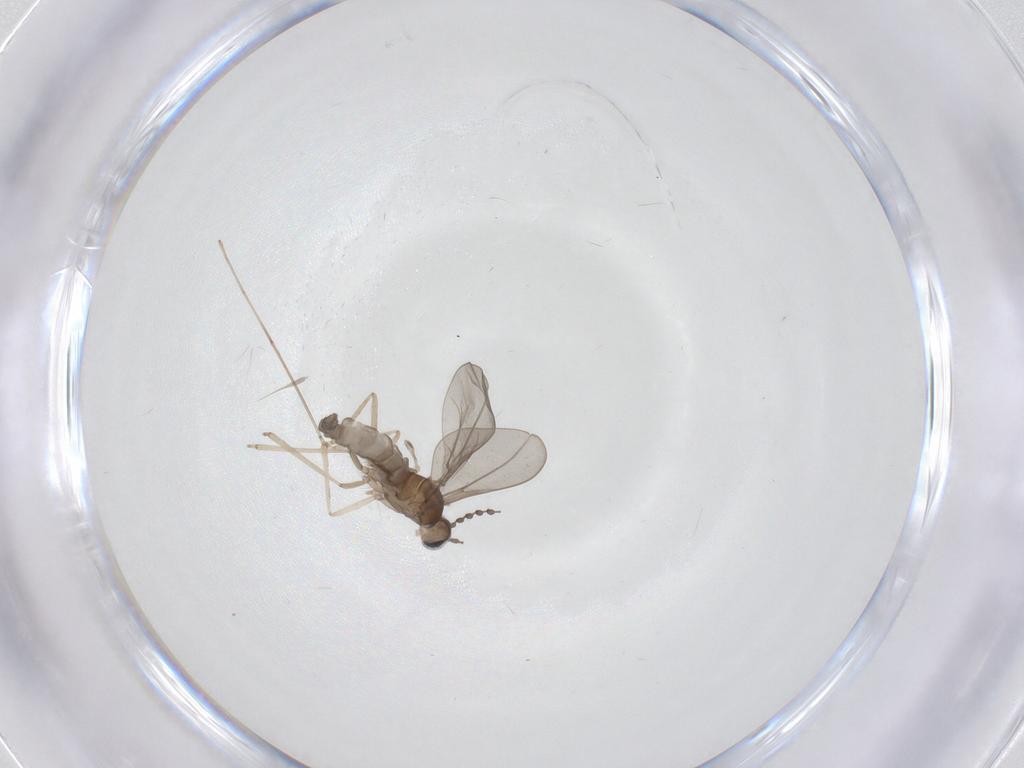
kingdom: Animalia
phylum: Arthropoda
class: Insecta
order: Diptera
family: Cecidomyiidae
